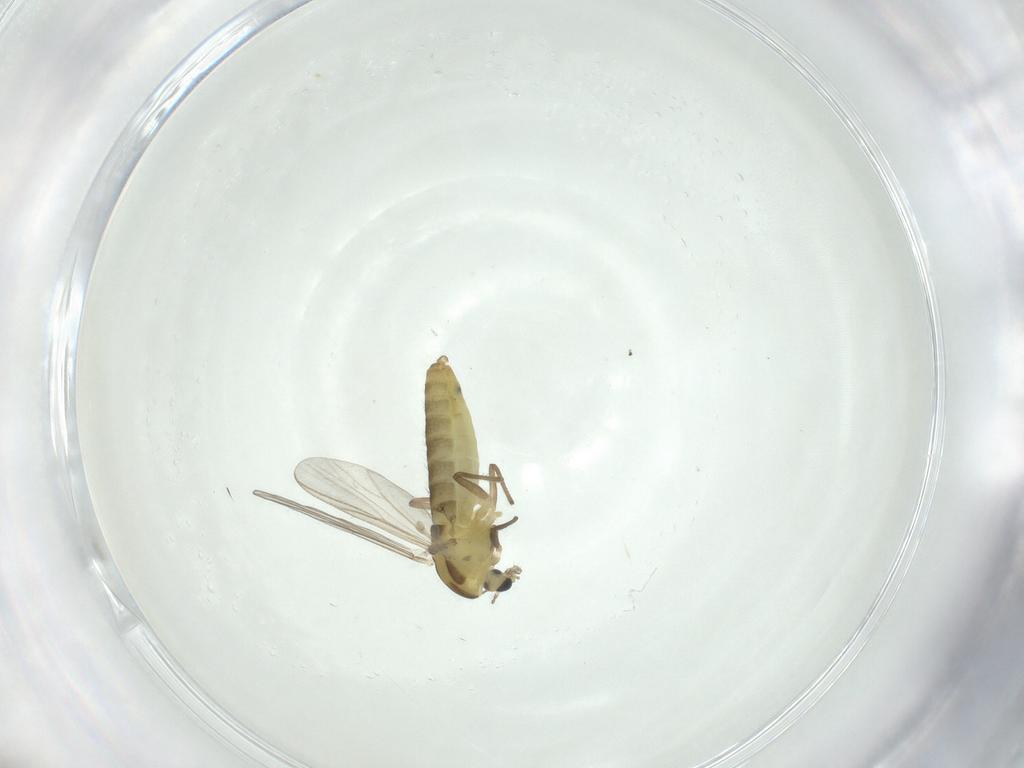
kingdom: Animalia
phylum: Arthropoda
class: Insecta
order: Diptera
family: Chironomidae
